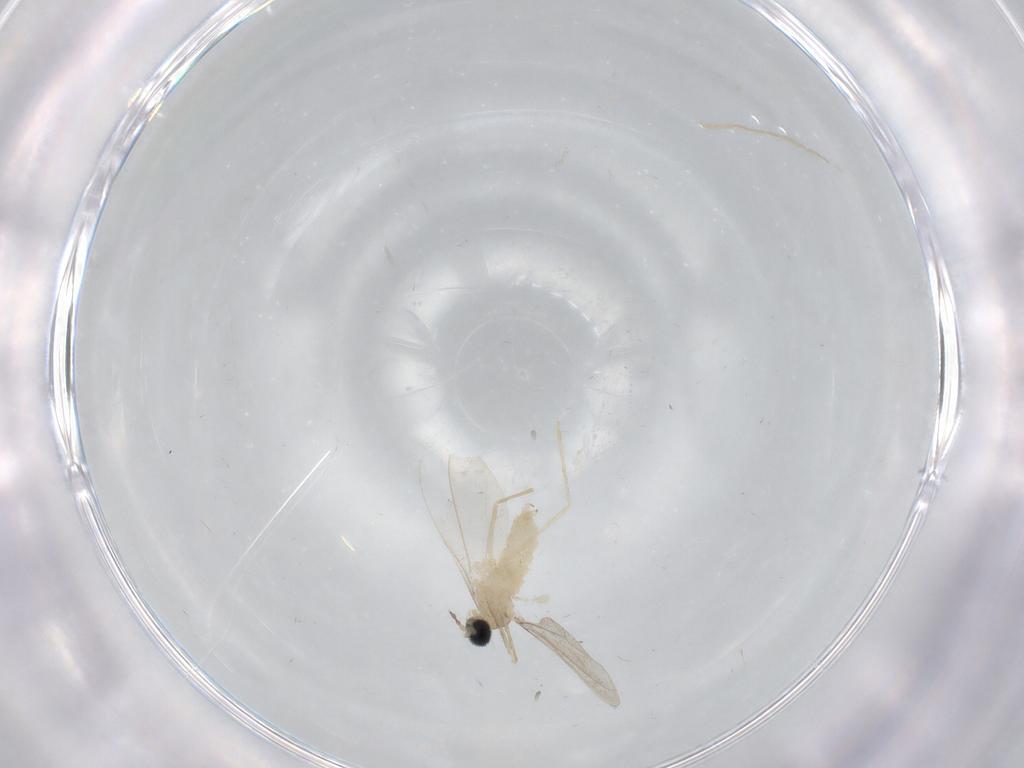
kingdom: Animalia
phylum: Arthropoda
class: Insecta
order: Diptera
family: Cecidomyiidae
